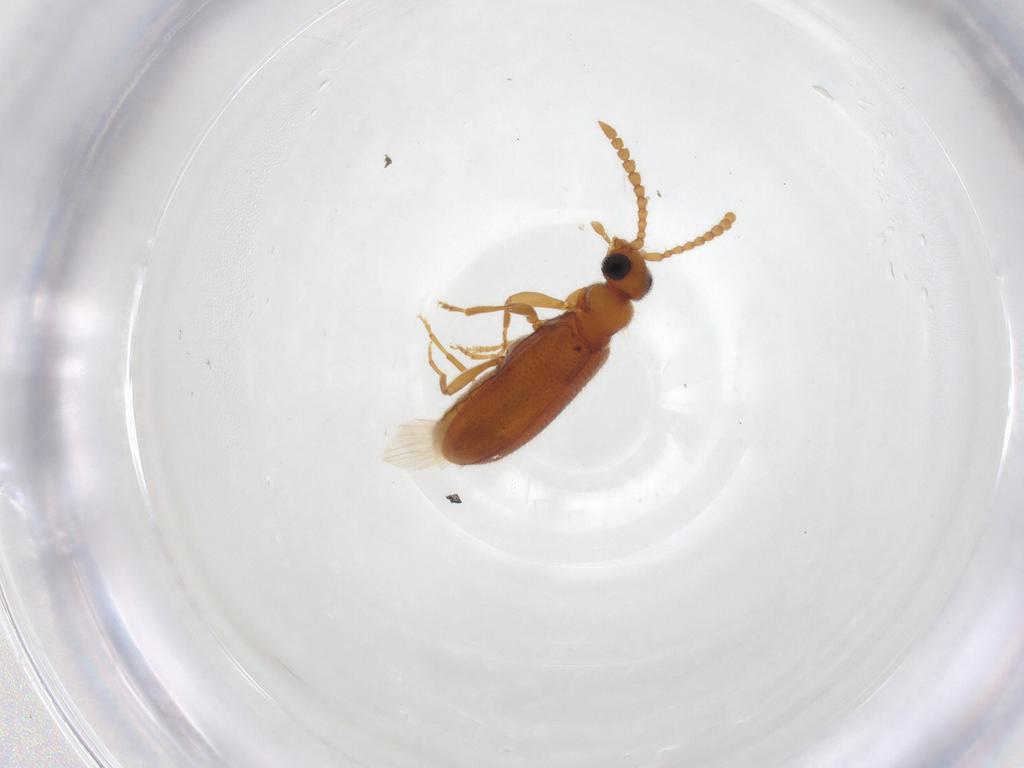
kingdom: Animalia
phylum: Arthropoda
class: Insecta
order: Coleoptera
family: Anthicidae
